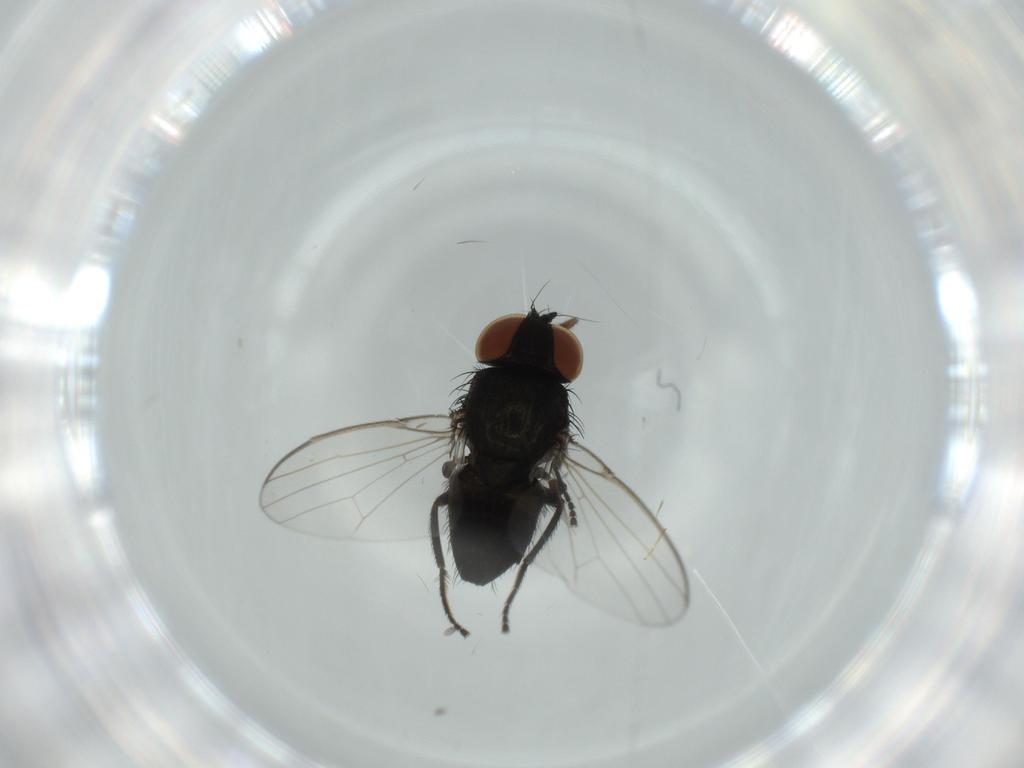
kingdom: Animalia
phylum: Arthropoda
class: Insecta
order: Diptera
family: Milichiidae
